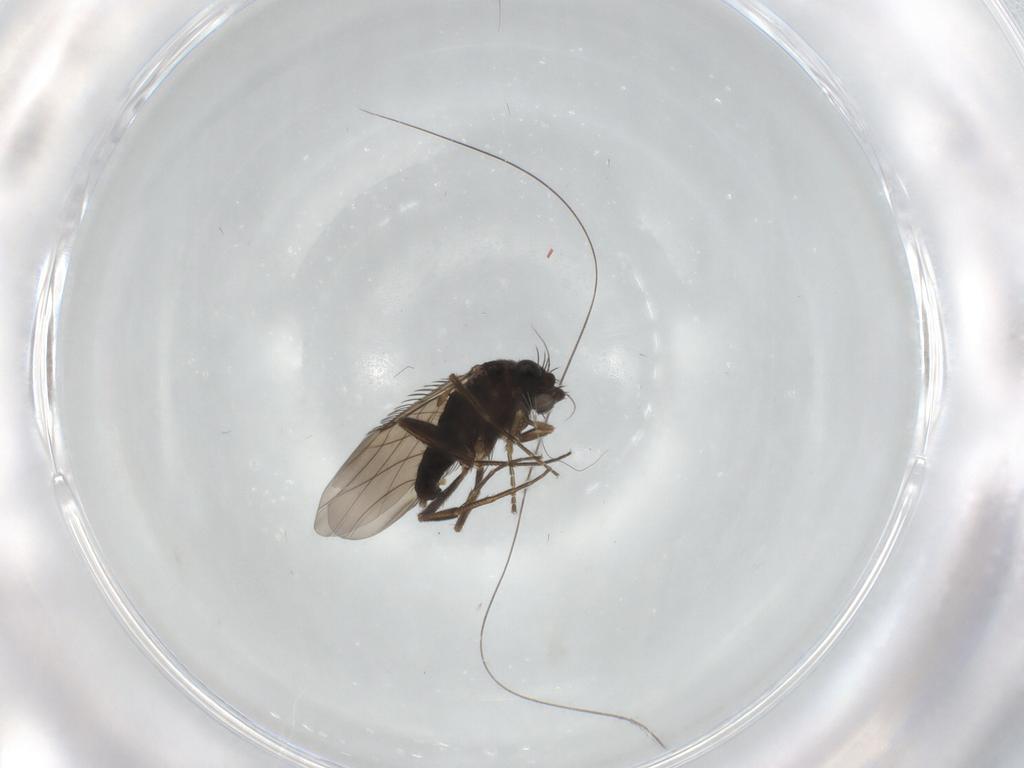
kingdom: Animalia
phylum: Arthropoda
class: Insecta
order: Diptera
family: Phoridae
